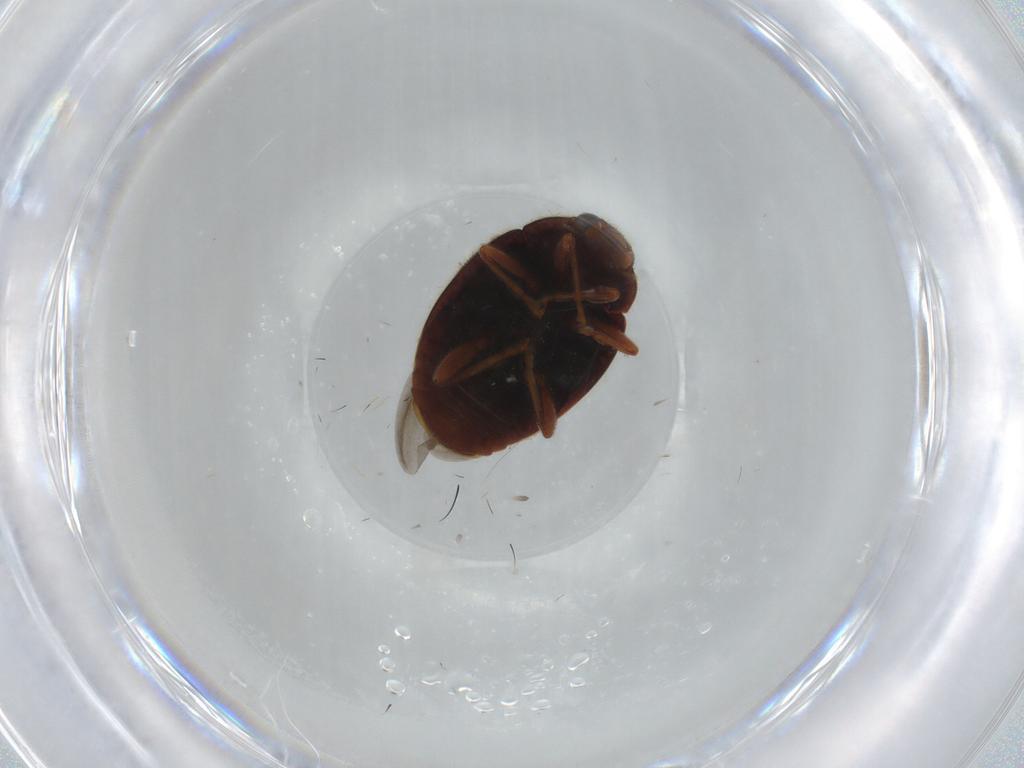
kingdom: Animalia
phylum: Arthropoda
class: Insecta
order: Coleoptera
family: Coccinellidae
